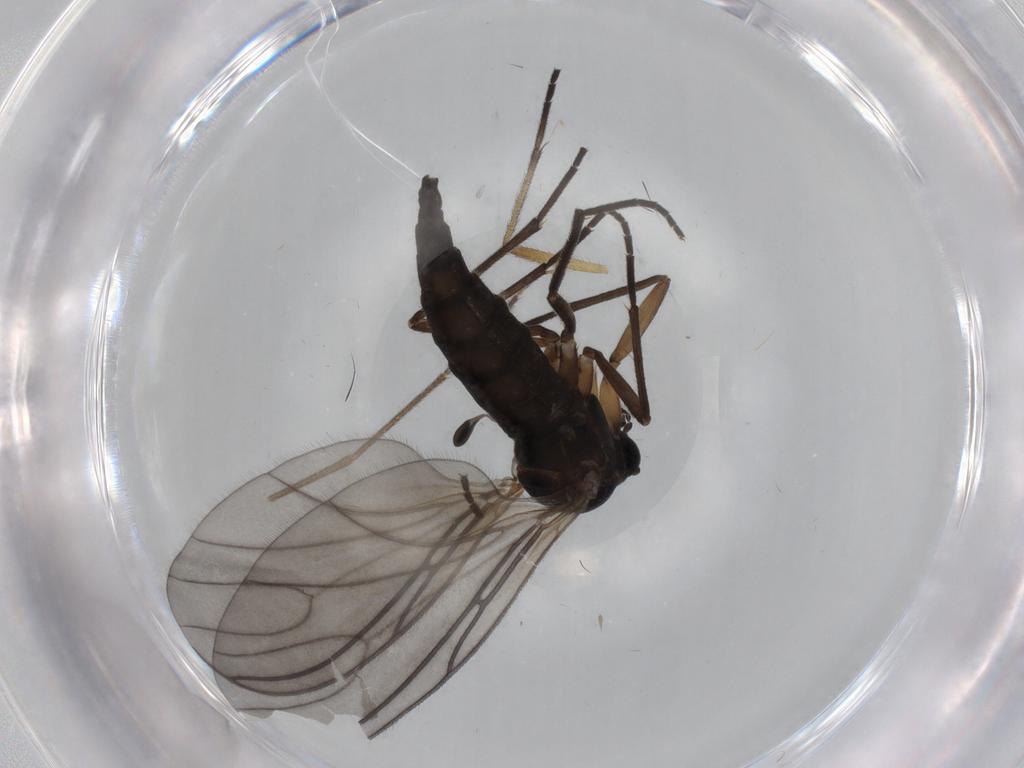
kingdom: Animalia
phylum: Arthropoda
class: Insecta
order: Diptera
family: Sciaridae
